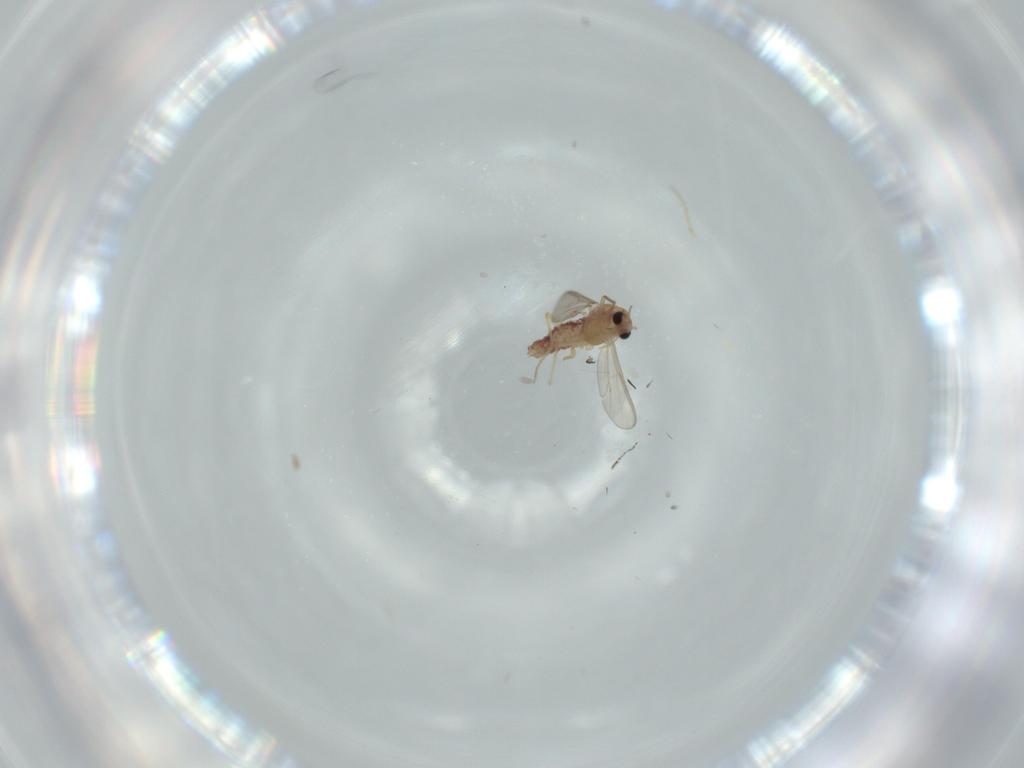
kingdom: Animalia
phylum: Arthropoda
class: Insecta
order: Diptera
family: Chironomidae
